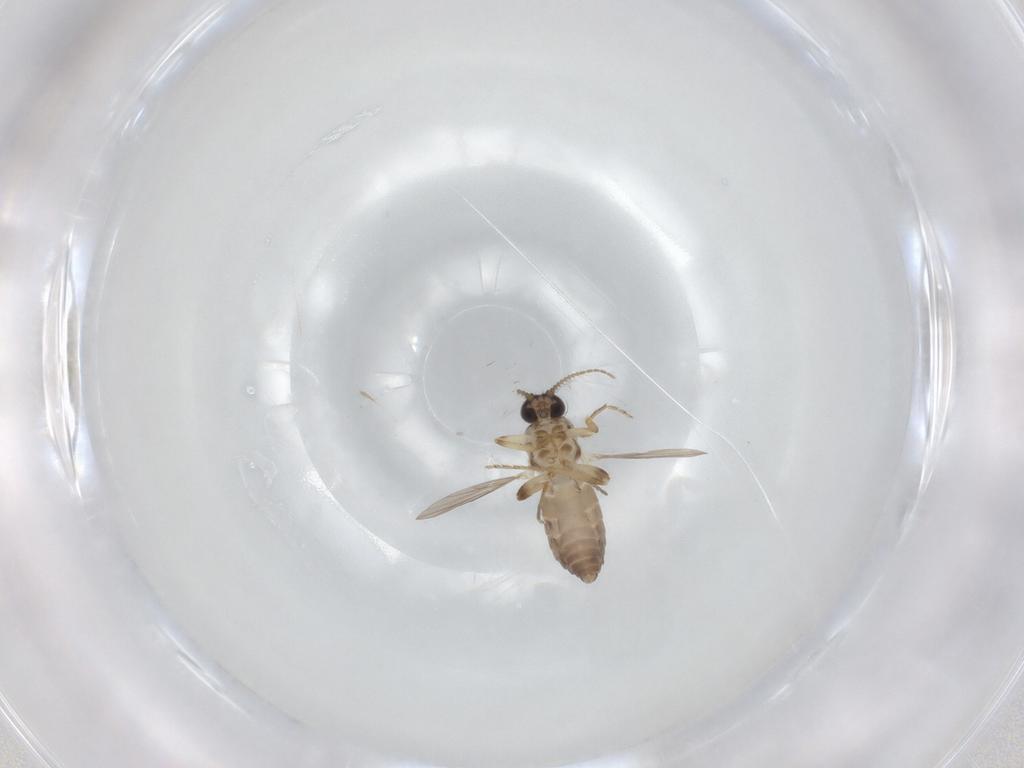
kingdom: Animalia
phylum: Arthropoda
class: Insecta
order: Diptera
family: Ceratopogonidae
